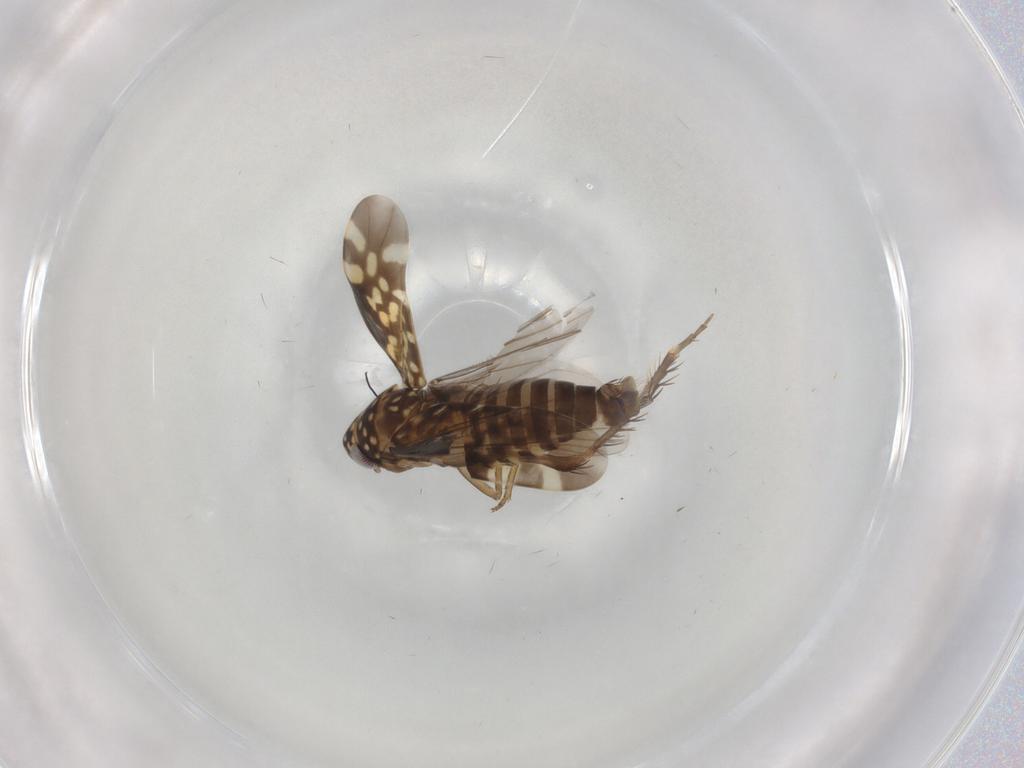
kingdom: Animalia
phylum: Arthropoda
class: Insecta
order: Hemiptera
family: Cicadellidae
